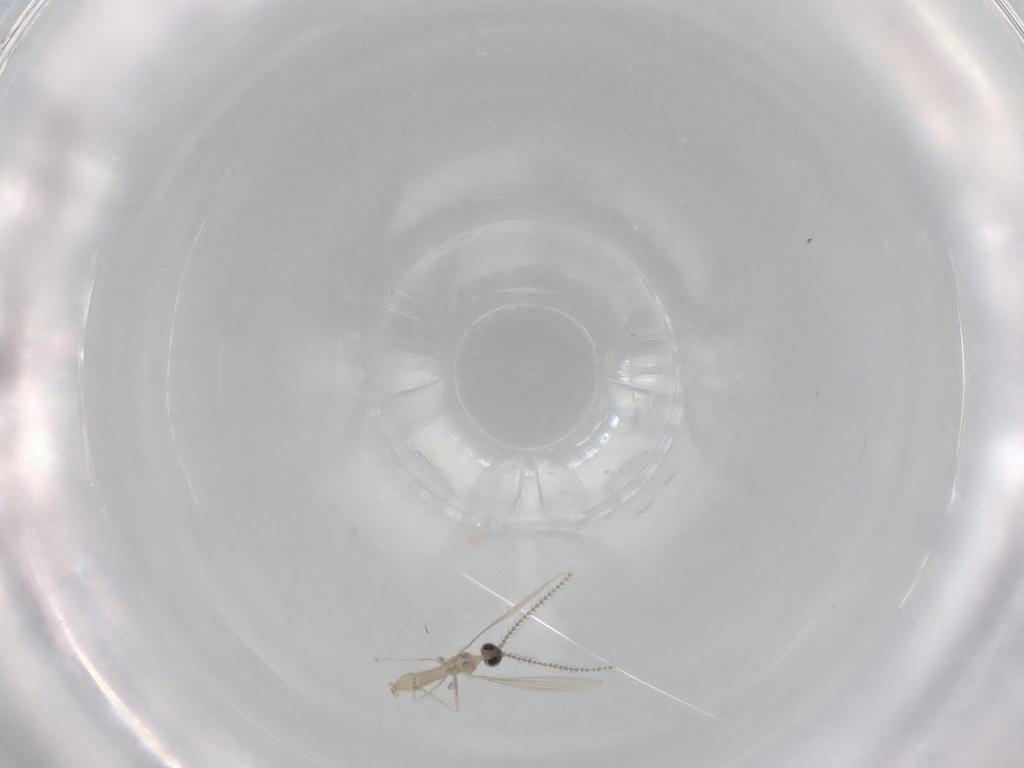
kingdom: Animalia
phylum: Arthropoda
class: Insecta
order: Diptera
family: Cecidomyiidae
